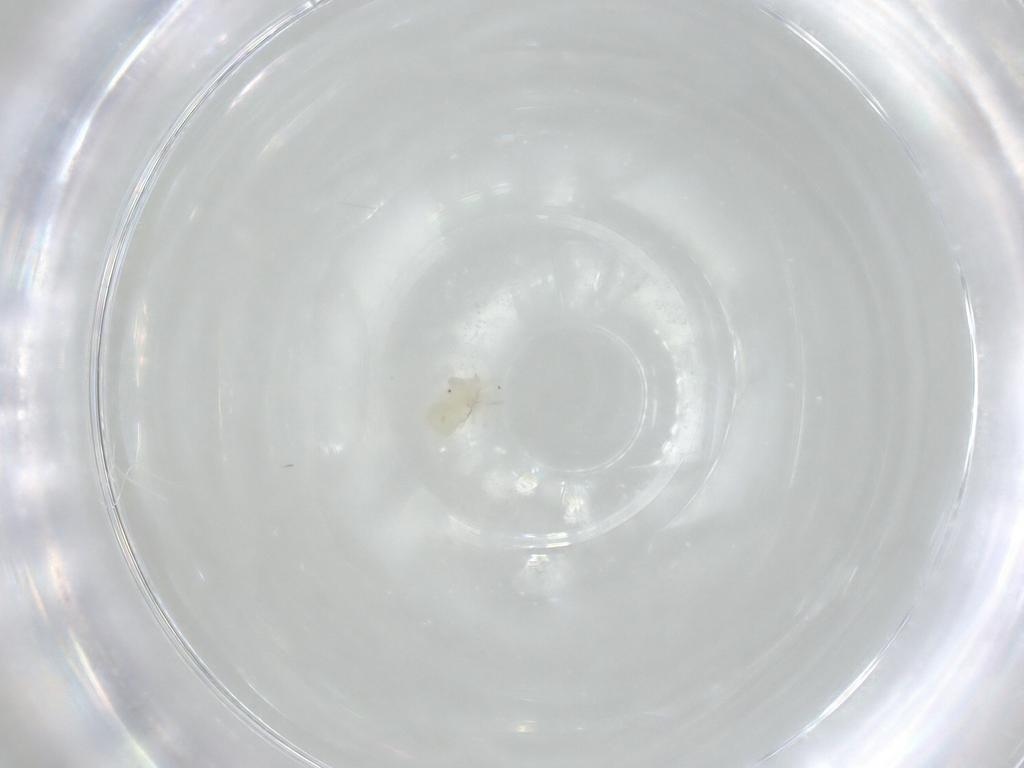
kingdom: Animalia
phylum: Arthropoda
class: Arachnida
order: Trombidiformes
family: Anystidae
